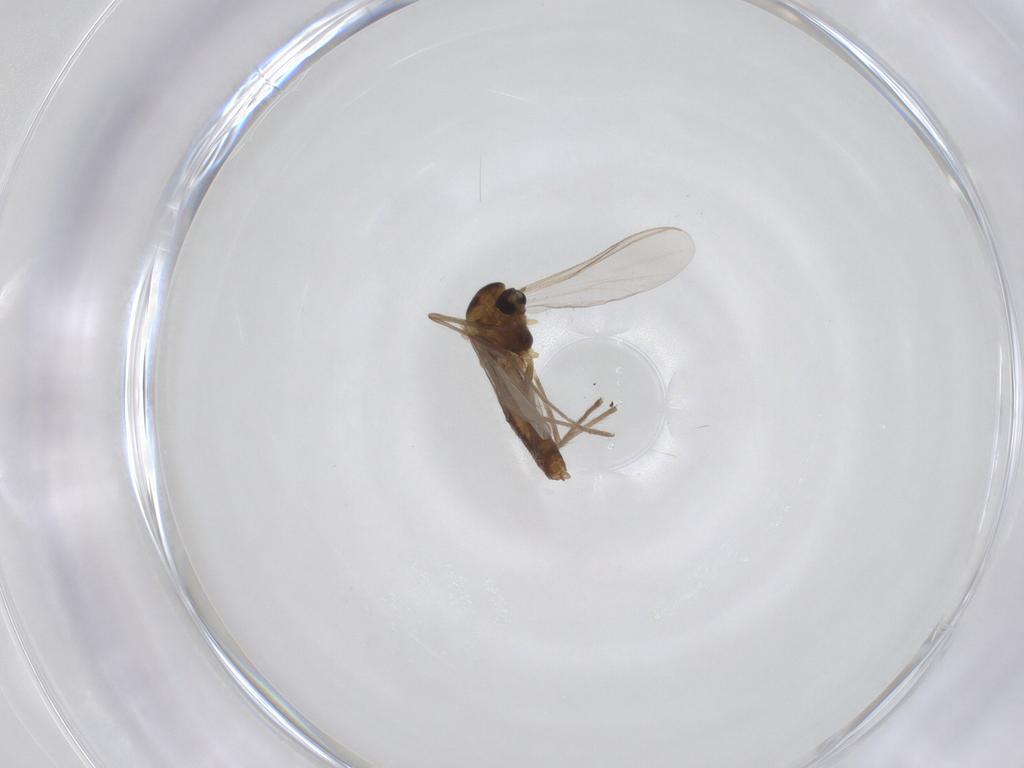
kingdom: Animalia
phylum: Arthropoda
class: Insecta
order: Diptera
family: Chironomidae
